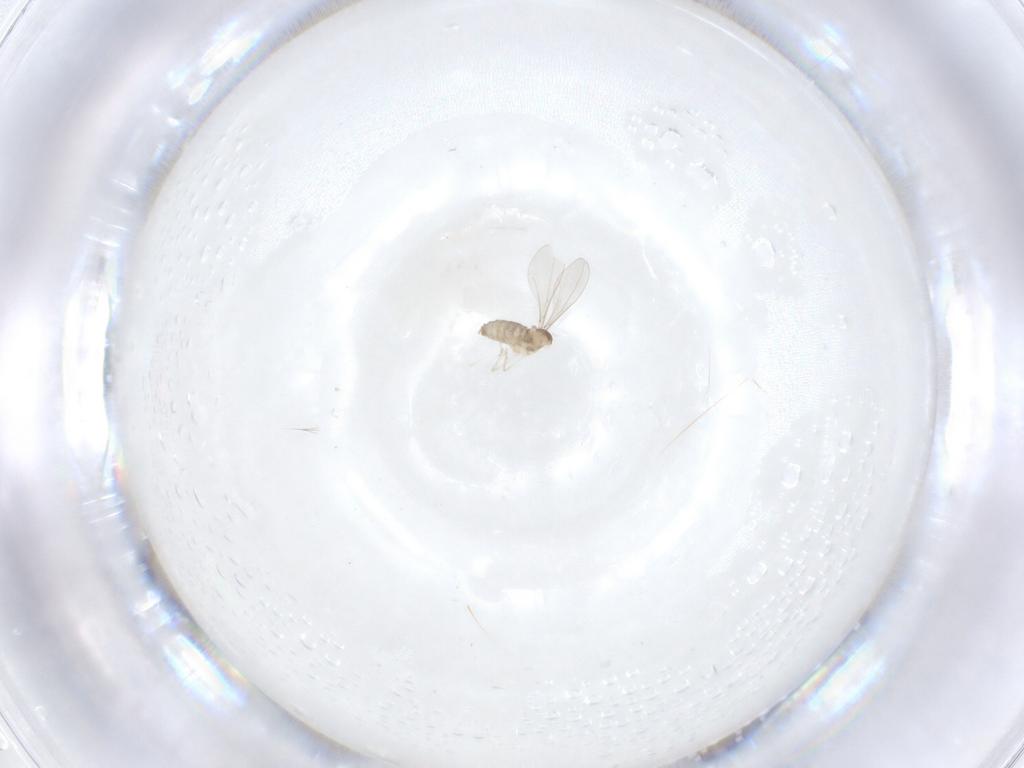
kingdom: Animalia
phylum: Arthropoda
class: Insecta
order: Diptera
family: Cecidomyiidae
